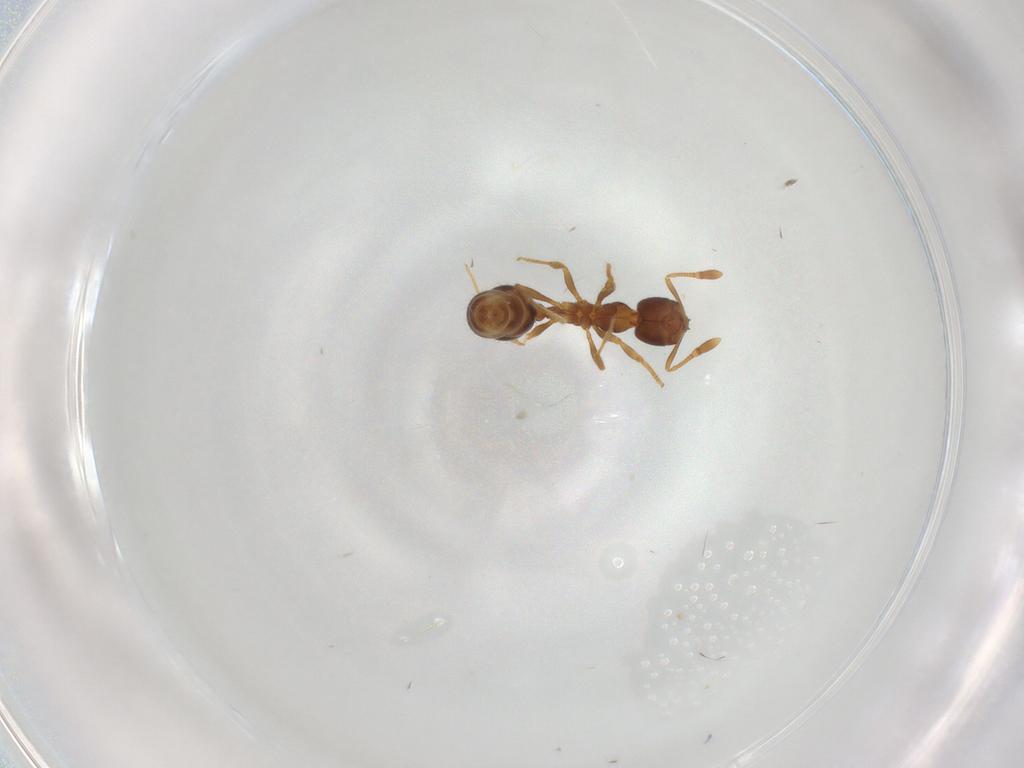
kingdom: Animalia
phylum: Arthropoda
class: Insecta
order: Hymenoptera
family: Formicidae
